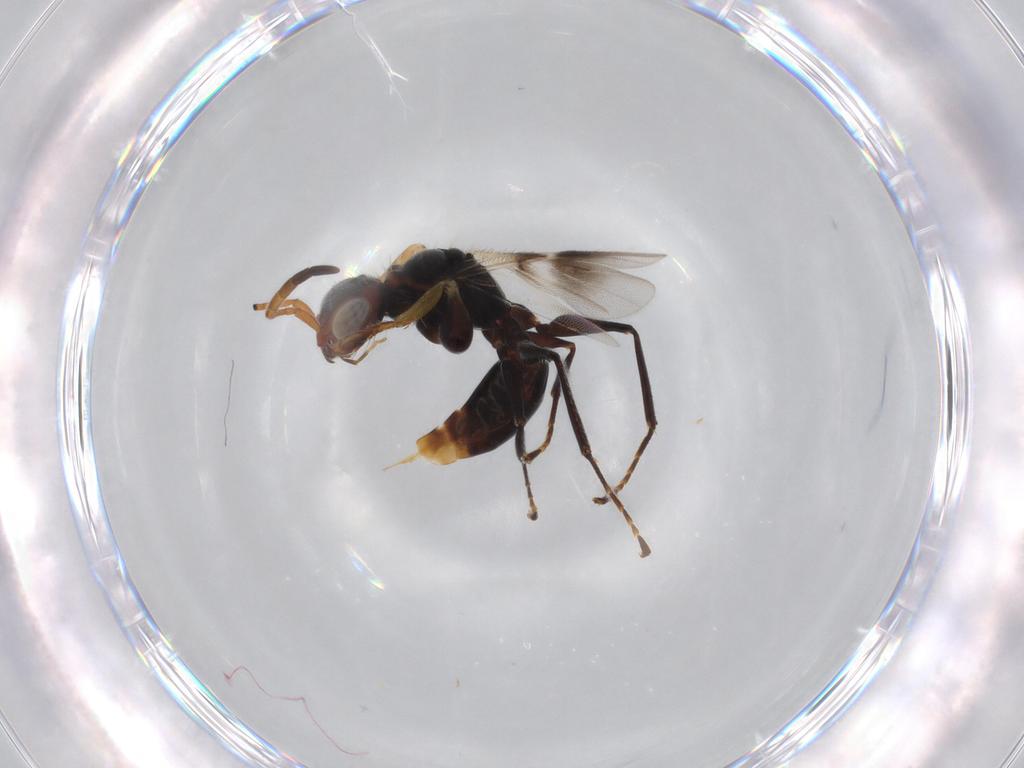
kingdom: Animalia
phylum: Arthropoda
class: Insecta
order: Hymenoptera
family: Dryinidae
